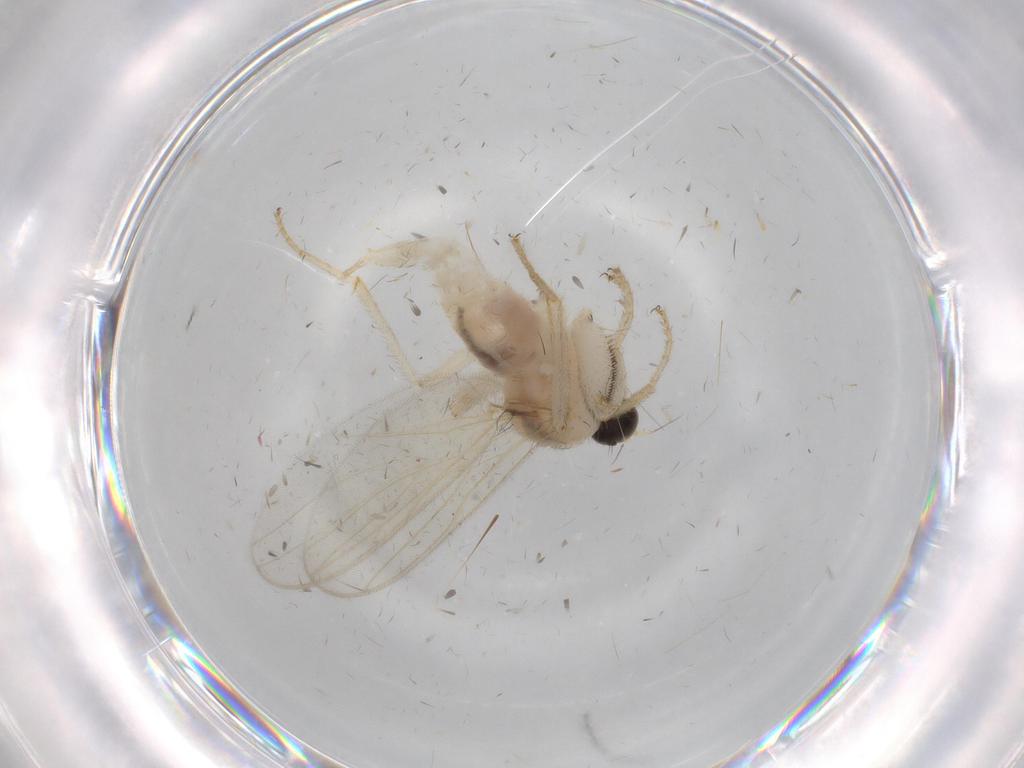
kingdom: Animalia
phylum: Arthropoda
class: Insecta
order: Diptera
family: Hybotidae
